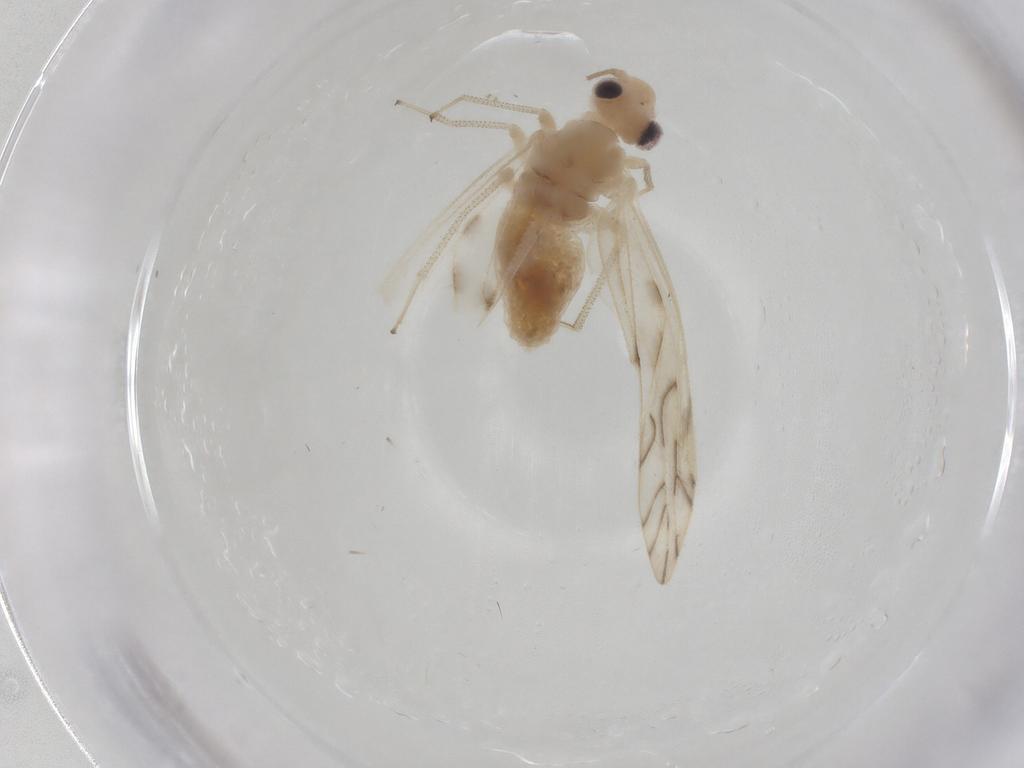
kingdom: Animalia
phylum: Arthropoda
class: Insecta
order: Psocodea
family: Caeciliusidae
